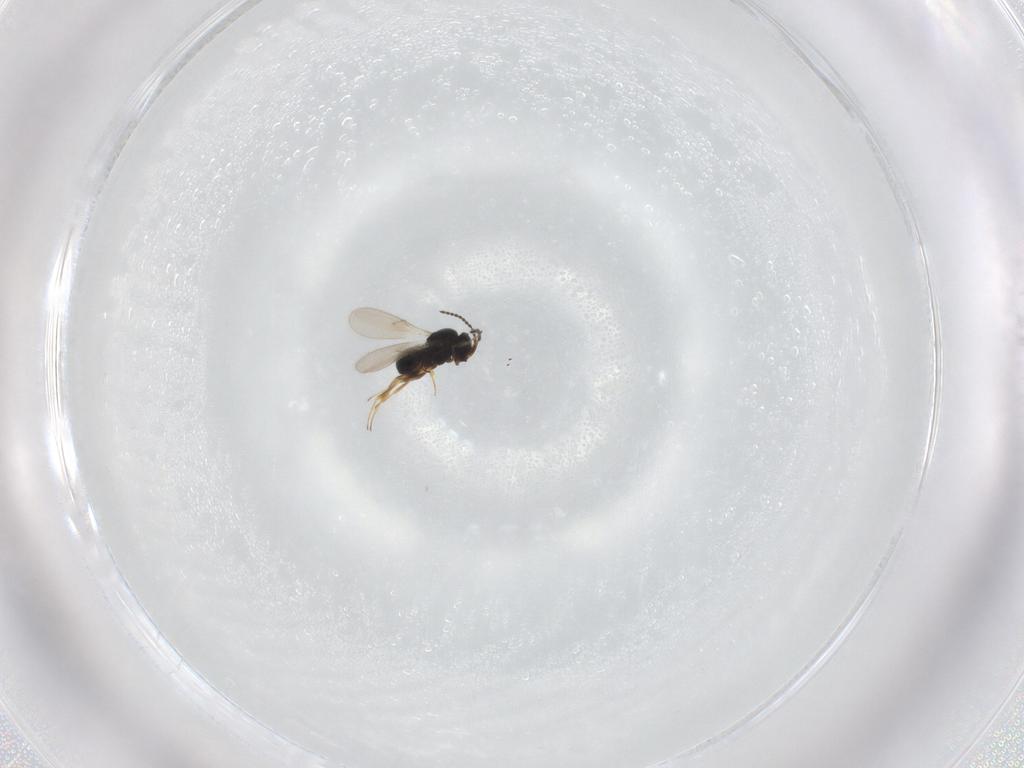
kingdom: Animalia
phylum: Arthropoda
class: Insecta
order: Hymenoptera
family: Scelionidae
